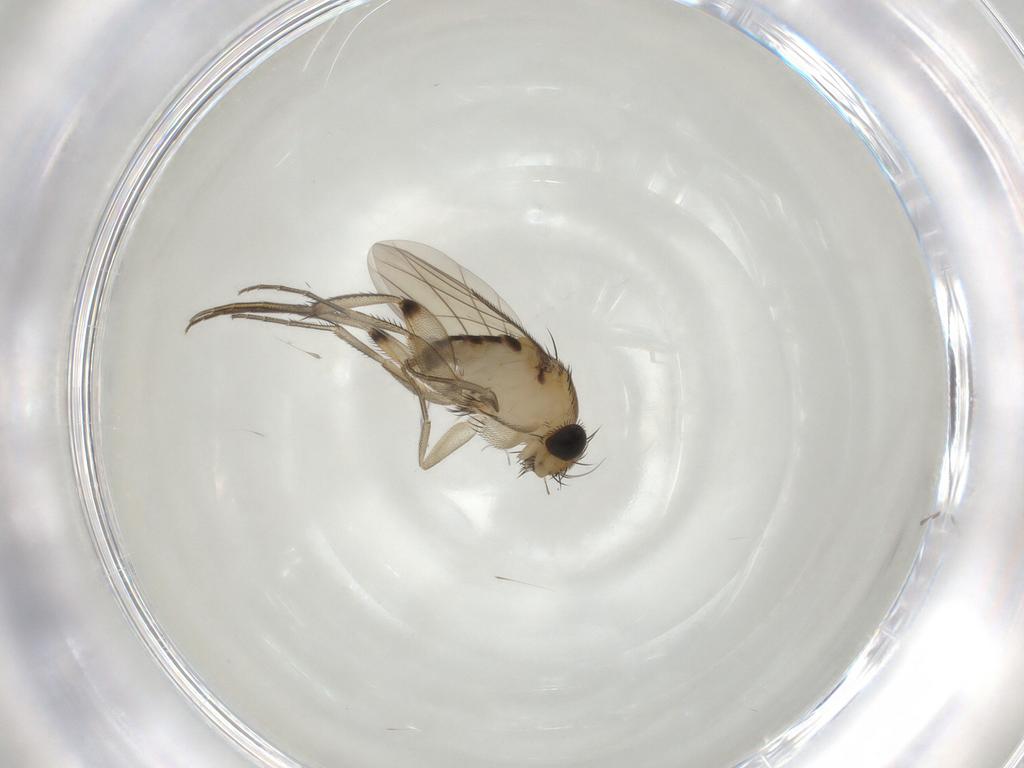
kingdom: Animalia
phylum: Arthropoda
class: Insecta
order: Diptera
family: Phoridae
